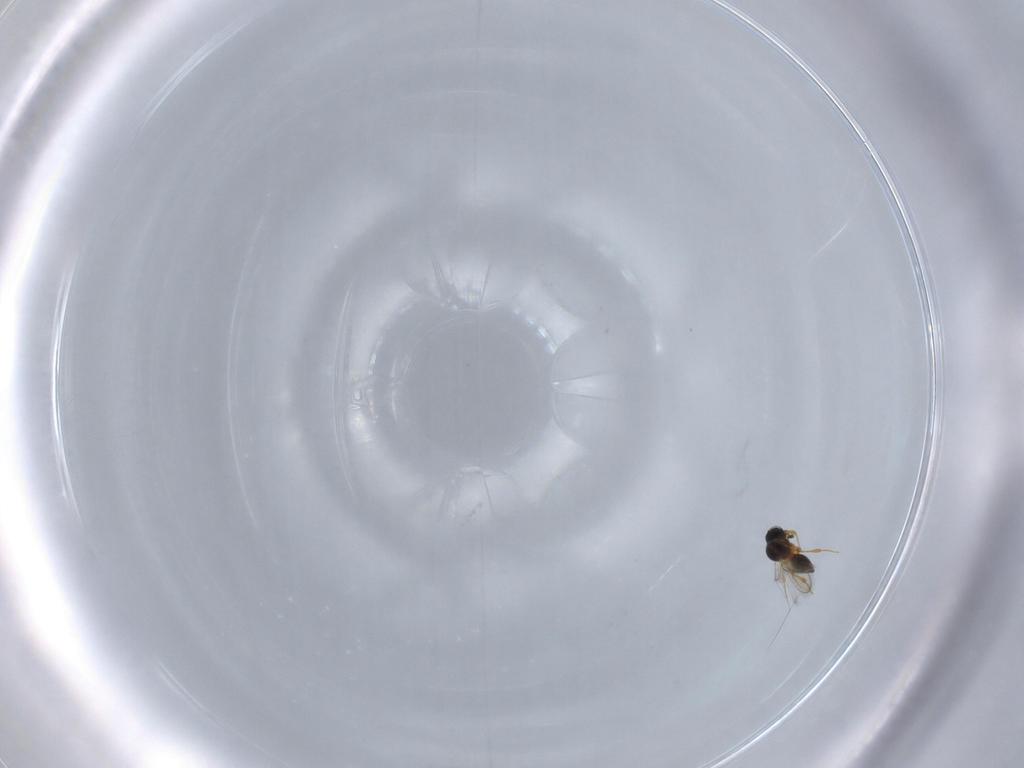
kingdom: Animalia
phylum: Arthropoda
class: Insecta
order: Hymenoptera
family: Platygastridae
